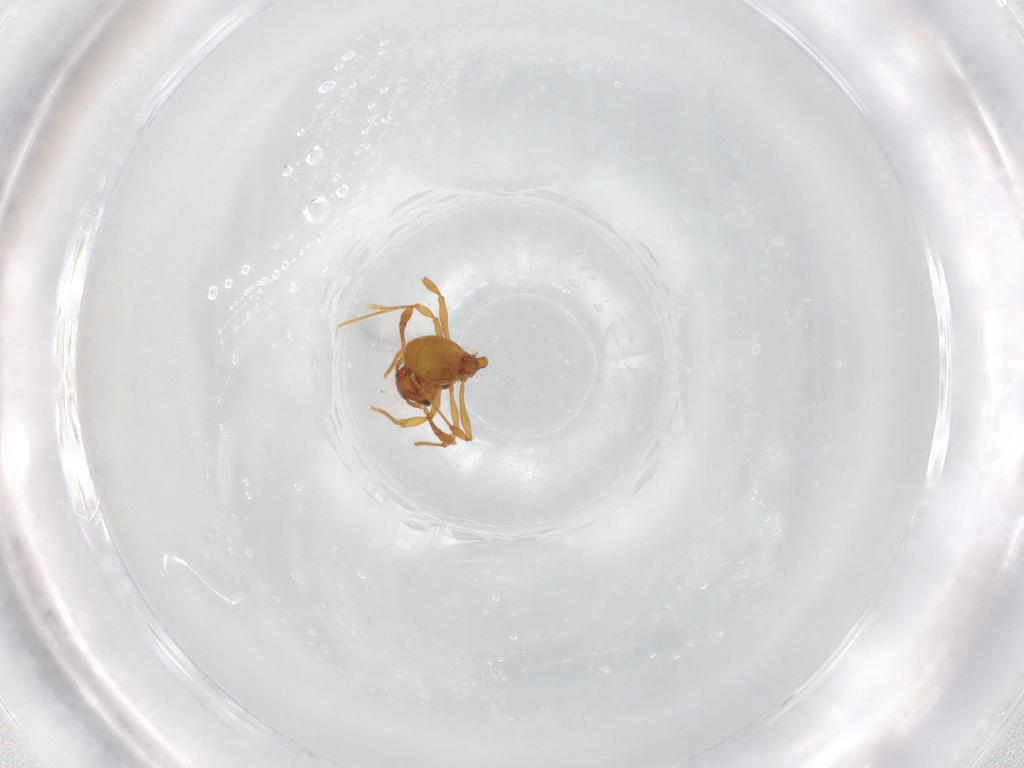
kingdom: Animalia
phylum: Arthropoda
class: Insecta
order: Hymenoptera
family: Formicidae
